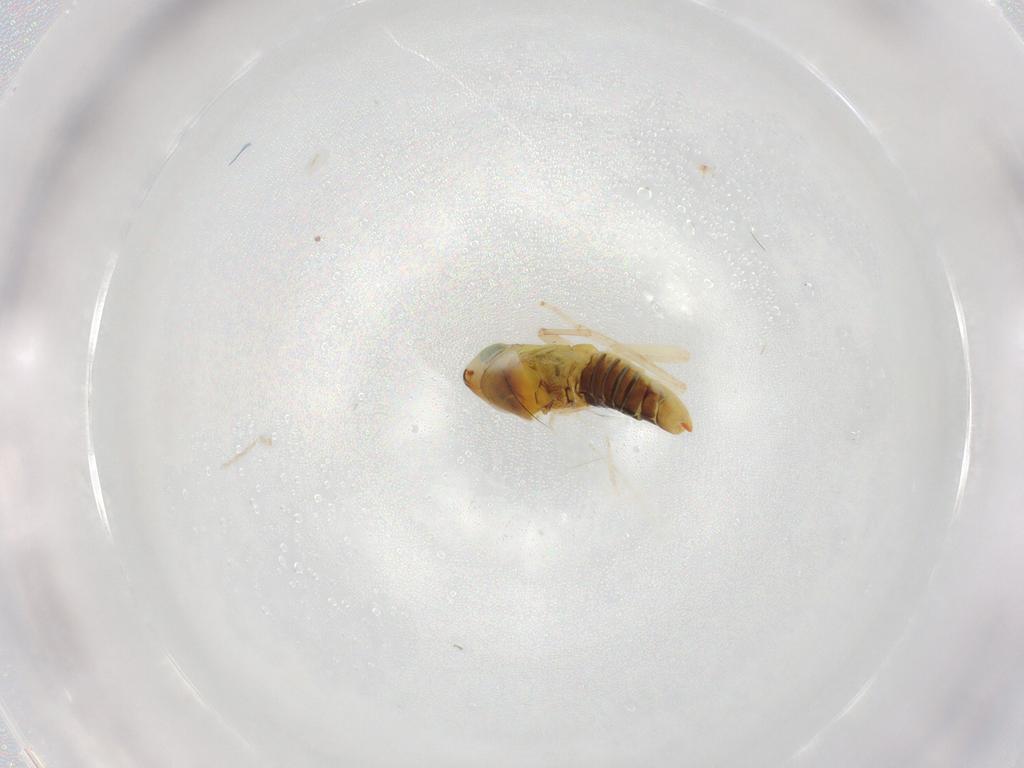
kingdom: Animalia
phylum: Arthropoda
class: Insecta
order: Hemiptera
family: Cicadellidae
